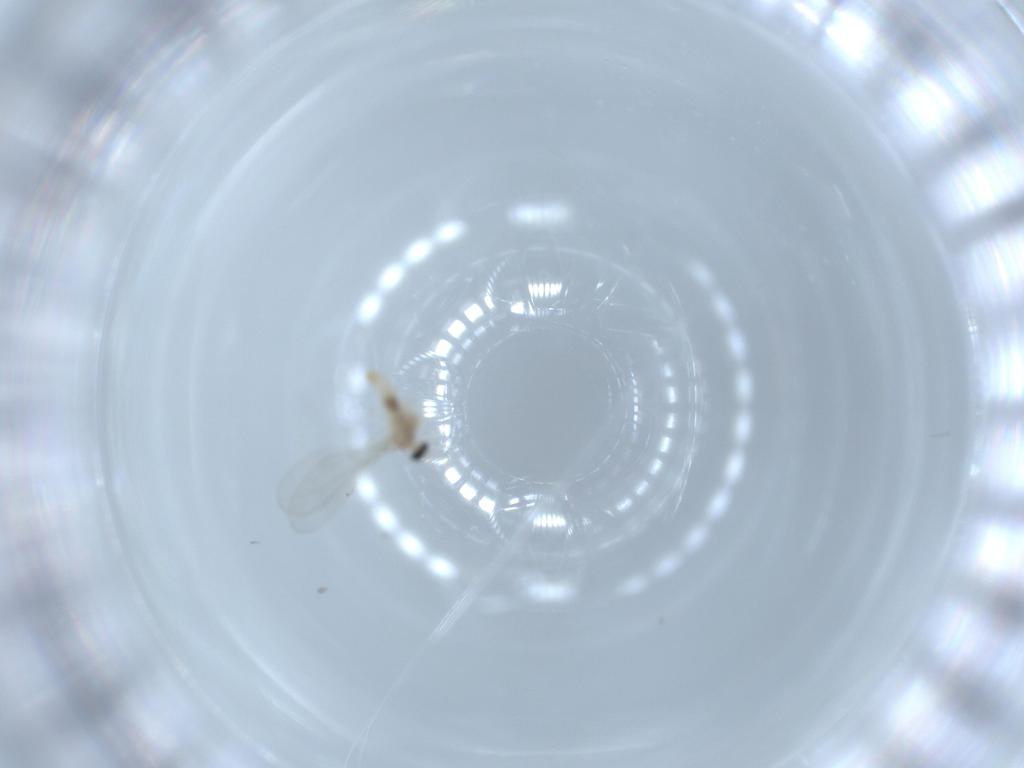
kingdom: Animalia
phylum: Arthropoda
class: Insecta
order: Diptera
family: Cecidomyiidae
